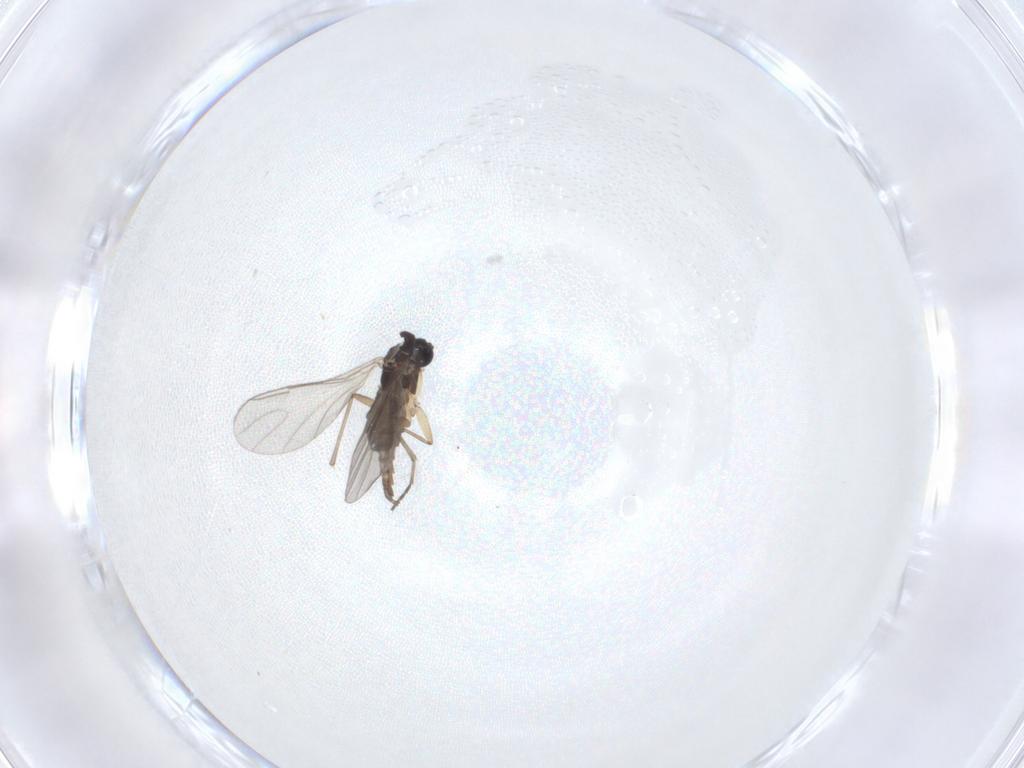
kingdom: Animalia
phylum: Arthropoda
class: Insecta
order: Diptera
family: Sciaridae
